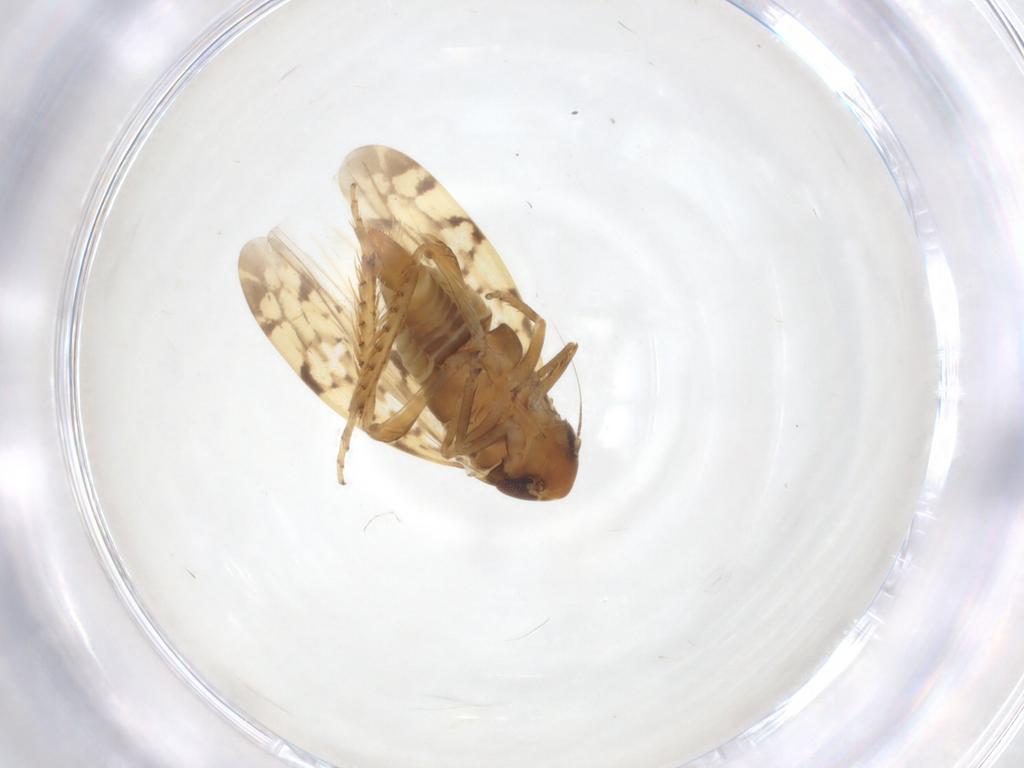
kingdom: Animalia
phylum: Arthropoda
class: Insecta
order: Hemiptera
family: Cicadellidae
